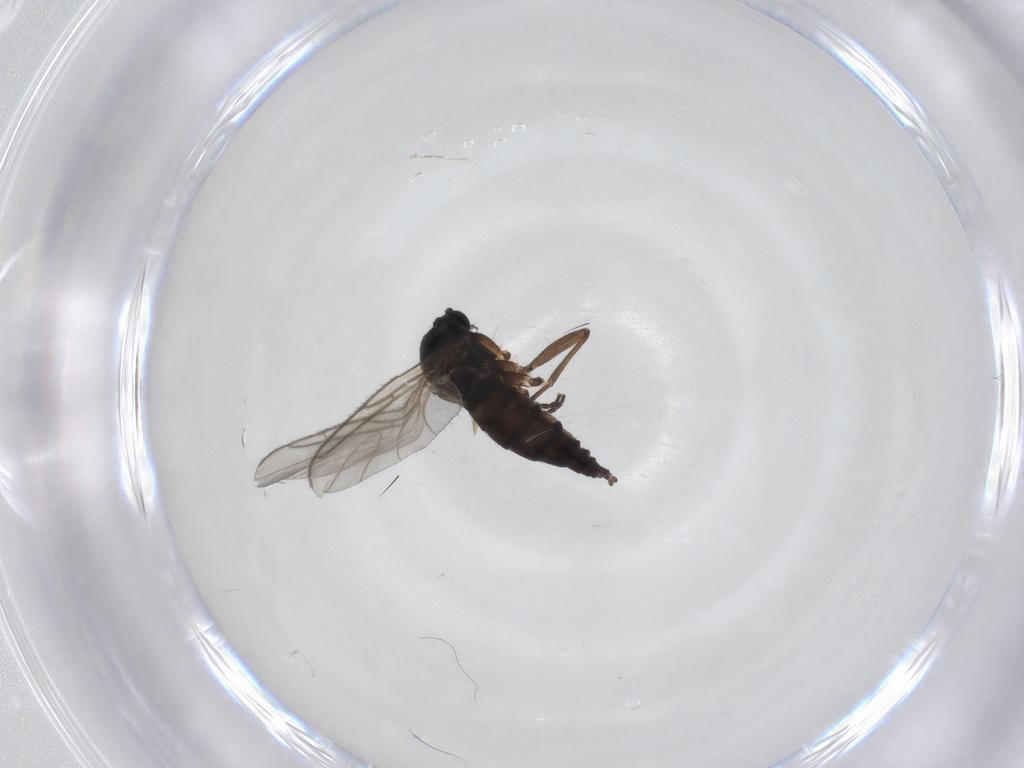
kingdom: Animalia
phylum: Arthropoda
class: Insecta
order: Diptera
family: Sciaridae
